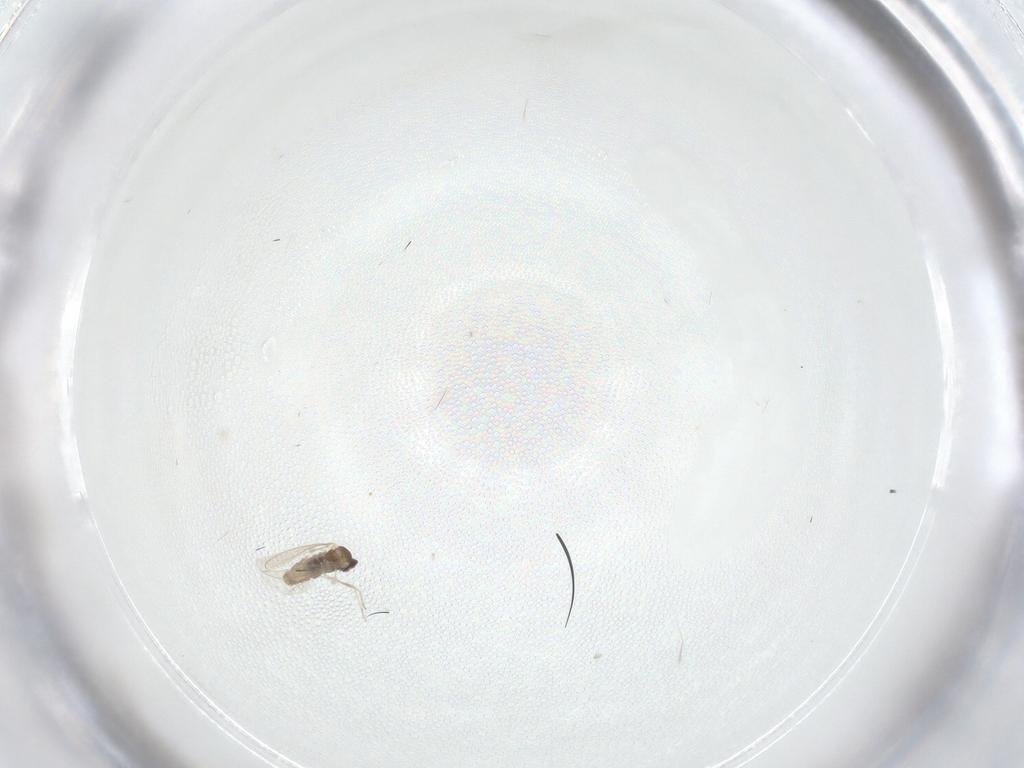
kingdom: Animalia
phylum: Arthropoda
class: Insecta
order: Diptera
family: Cecidomyiidae
